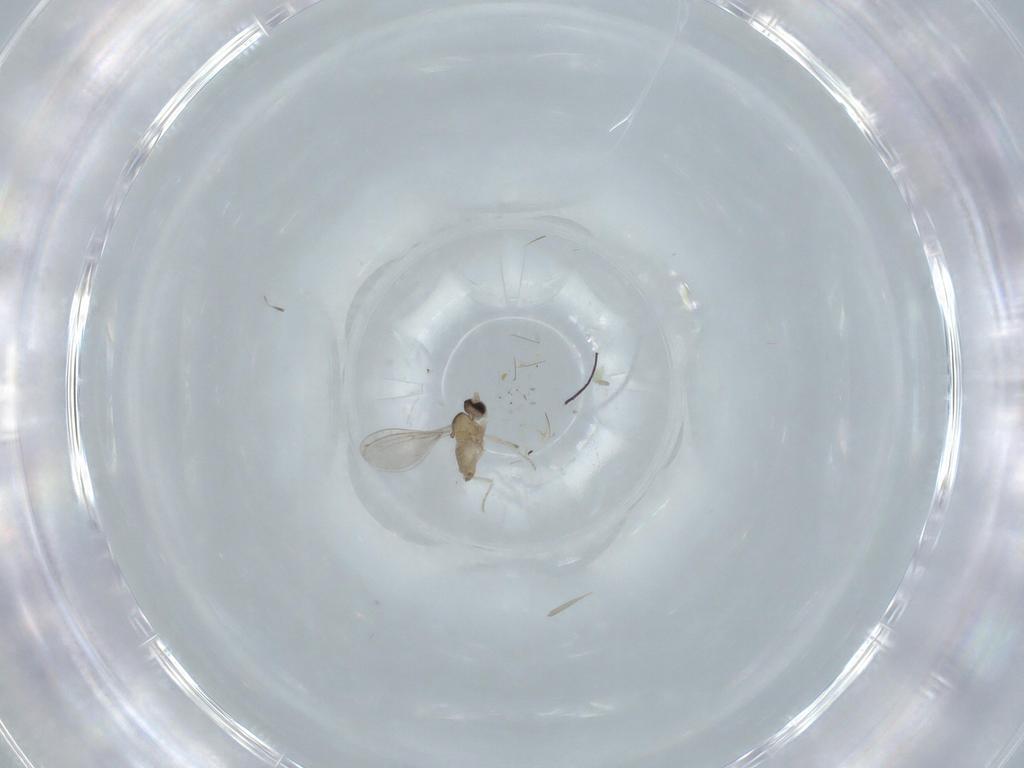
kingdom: Animalia
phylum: Arthropoda
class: Insecta
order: Diptera
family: Cecidomyiidae
